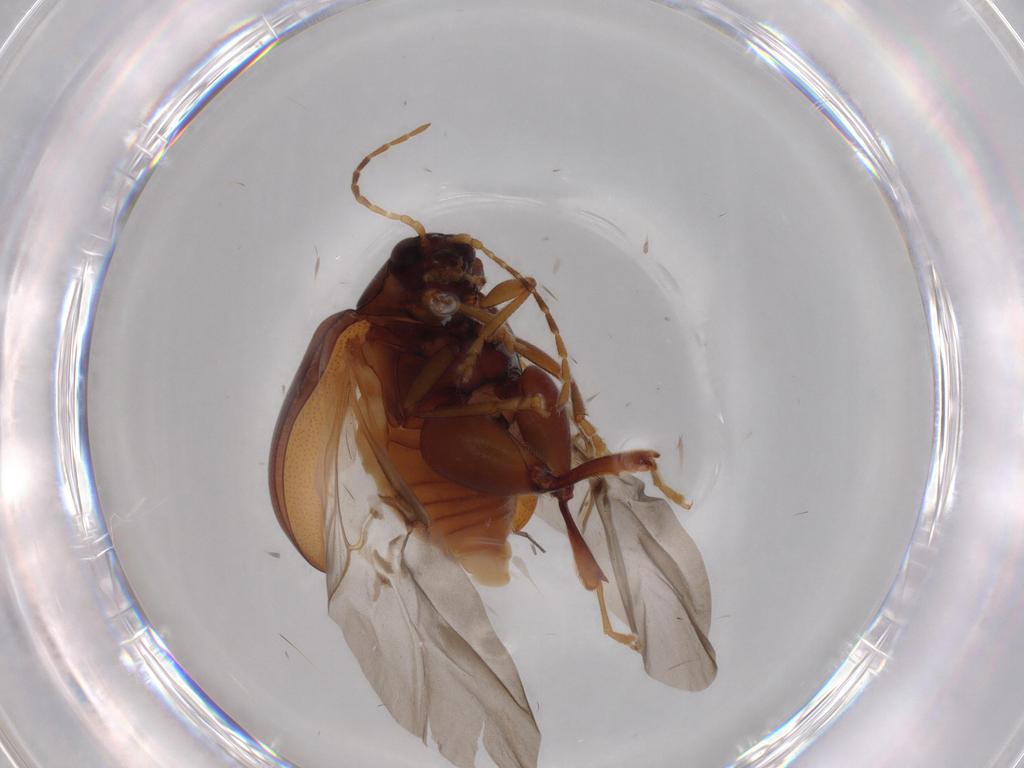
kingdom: Animalia
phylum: Arthropoda
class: Insecta
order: Coleoptera
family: Chrysomelidae
